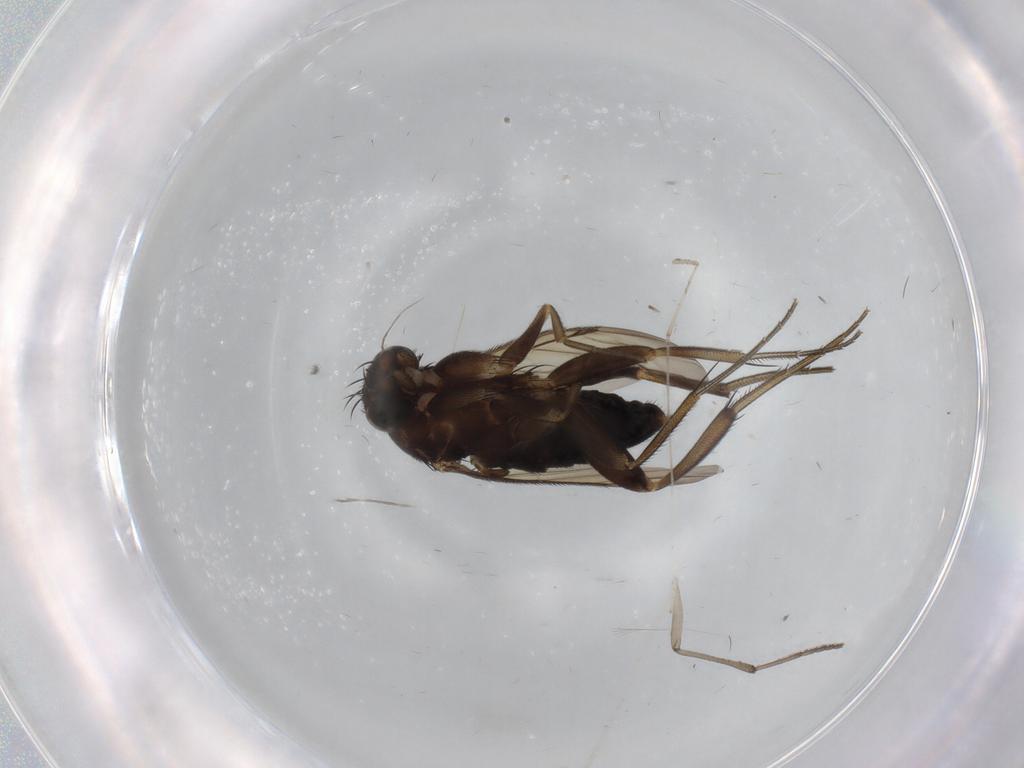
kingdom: Animalia
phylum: Arthropoda
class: Insecta
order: Diptera
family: Phoridae
